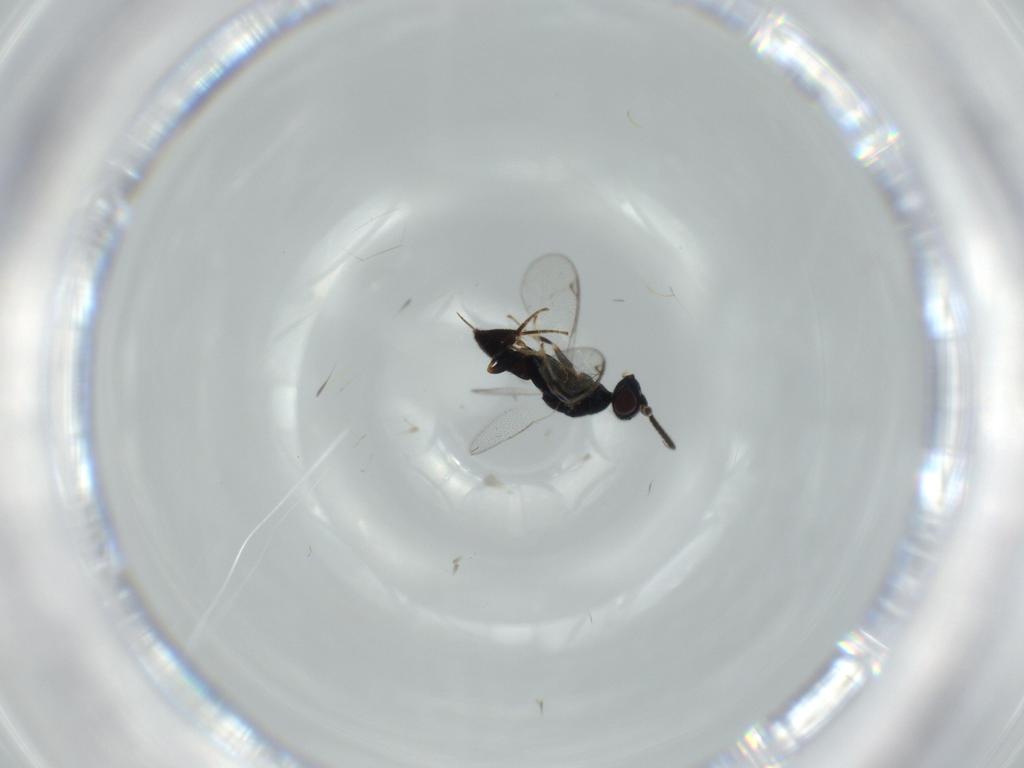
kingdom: Animalia
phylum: Arthropoda
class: Insecta
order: Hymenoptera
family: Cleonyminae
